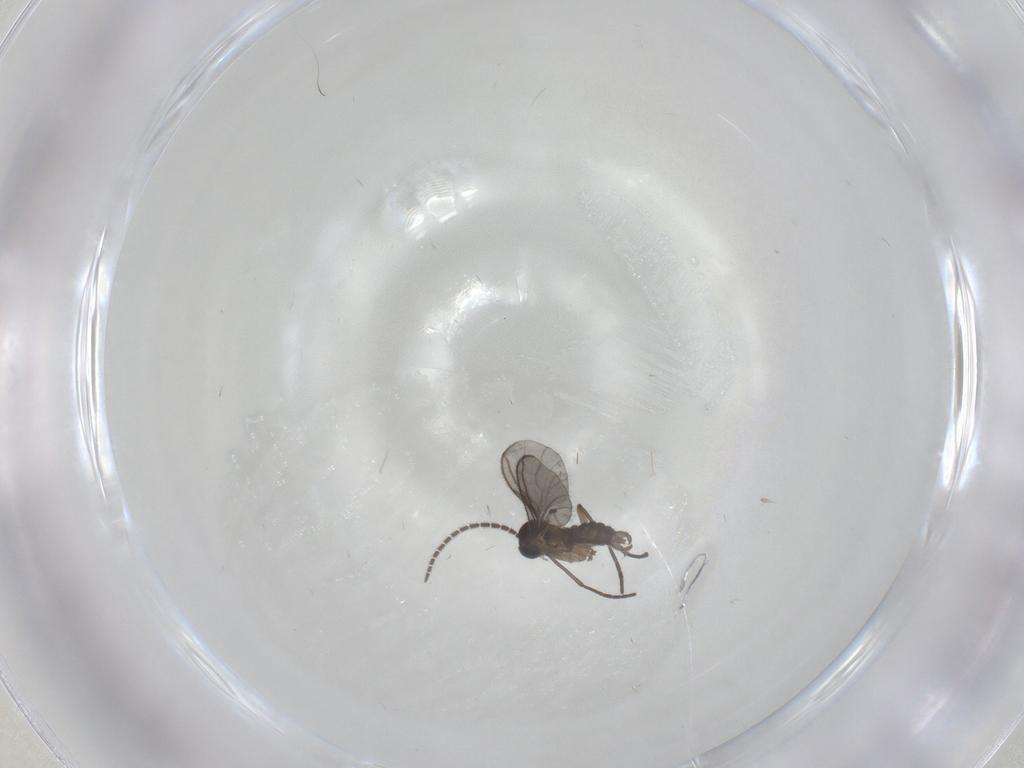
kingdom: Animalia
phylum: Arthropoda
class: Insecta
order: Diptera
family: Sciaridae
